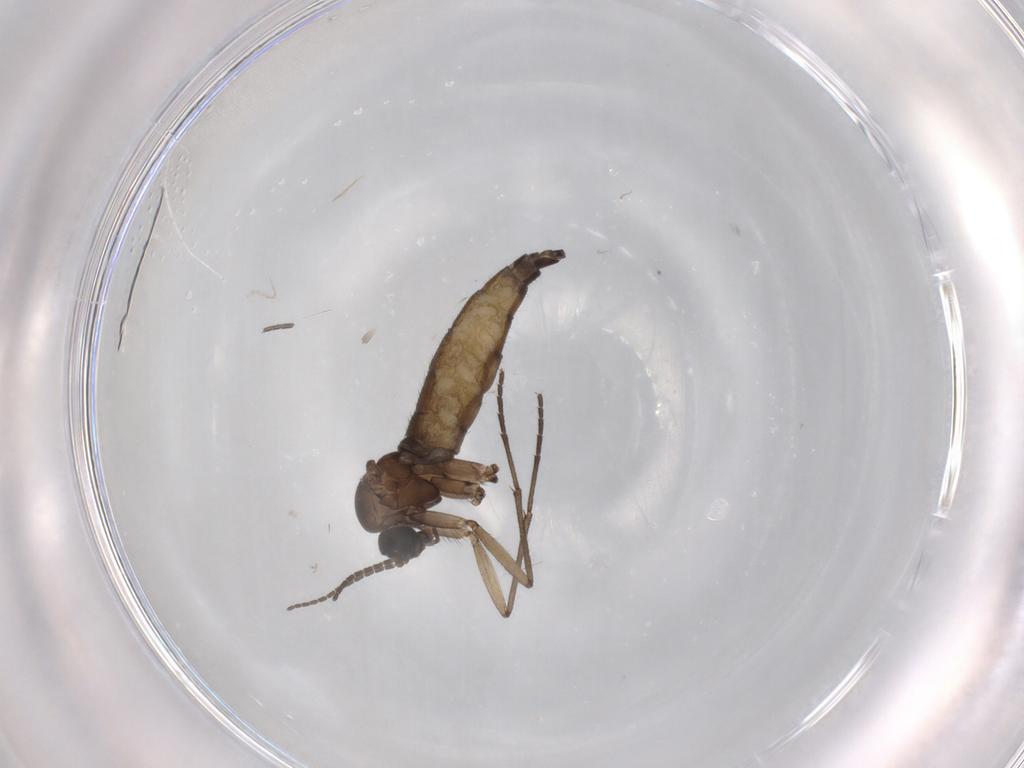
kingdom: Animalia
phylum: Arthropoda
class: Insecta
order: Diptera
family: Sciaridae
